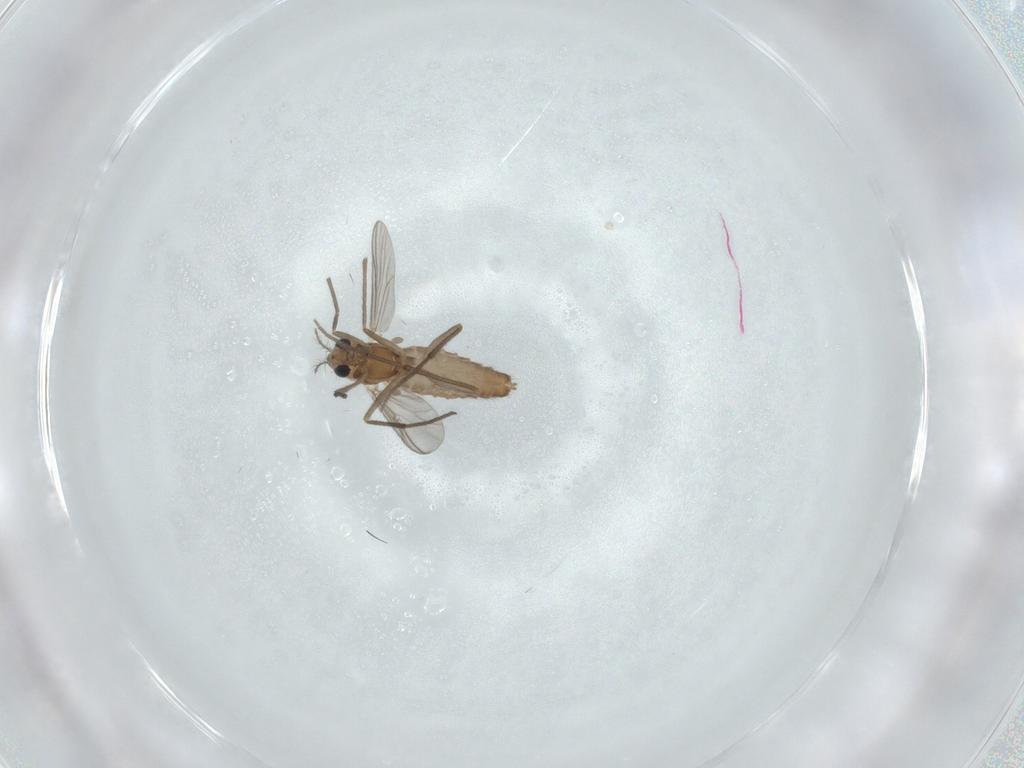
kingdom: Animalia
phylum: Arthropoda
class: Insecta
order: Diptera
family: Chironomidae
